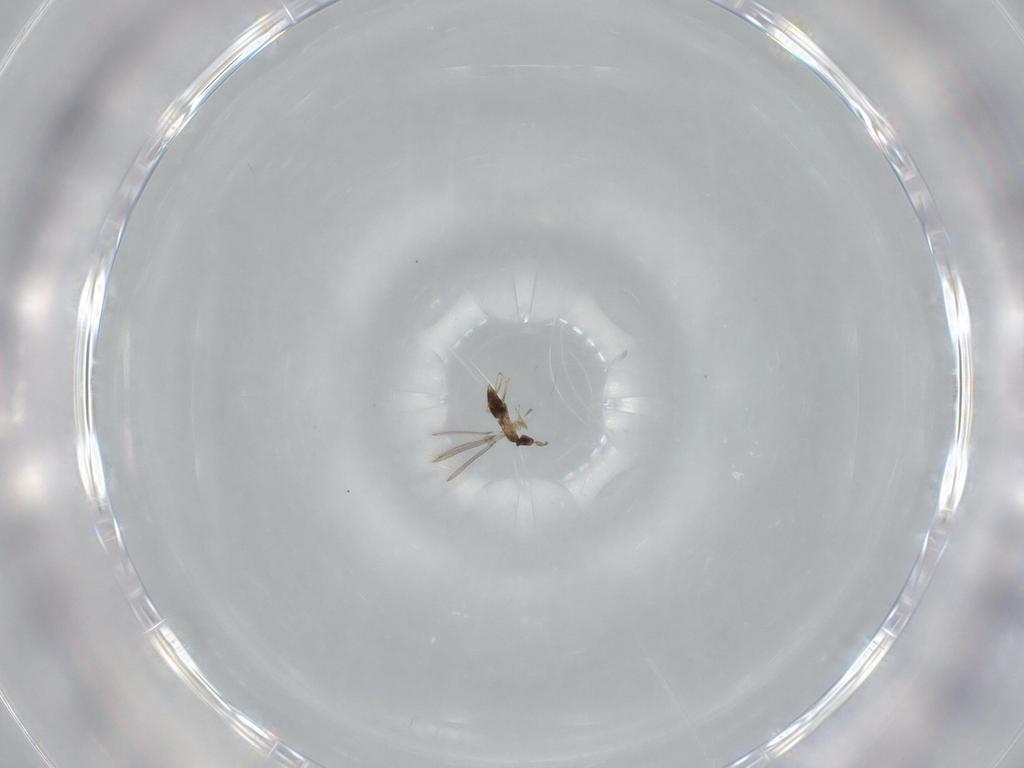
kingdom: Animalia
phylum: Arthropoda
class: Insecta
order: Hymenoptera
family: Mymaridae
